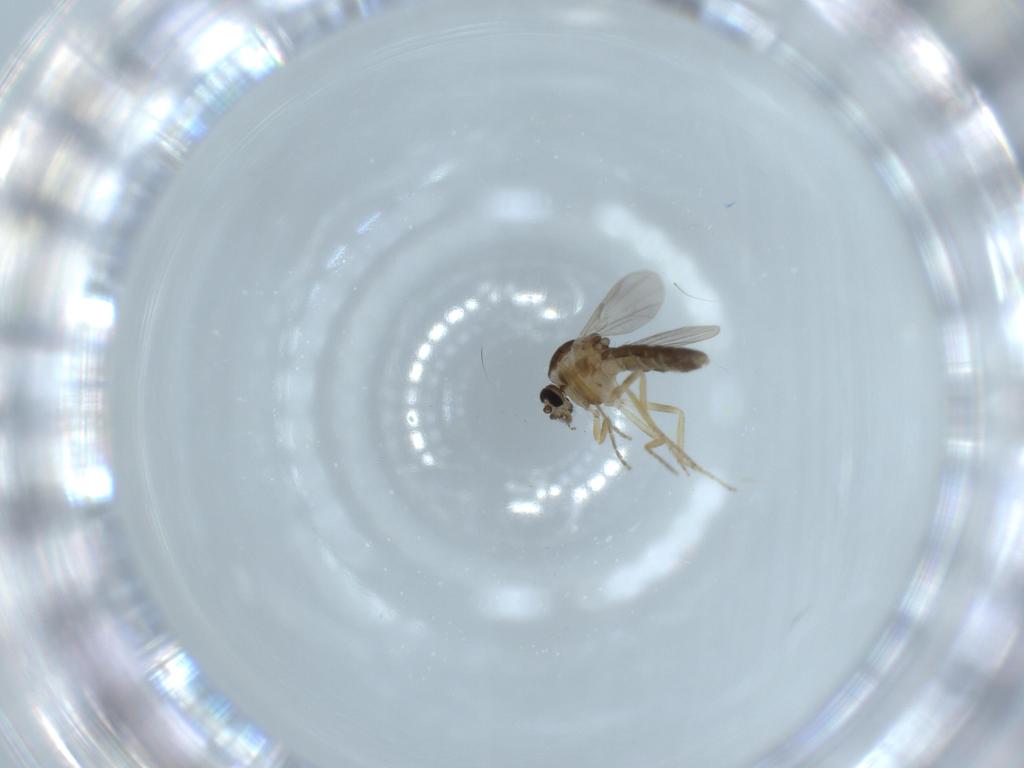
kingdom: Animalia
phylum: Arthropoda
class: Insecta
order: Diptera
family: Ceratopogonidae
